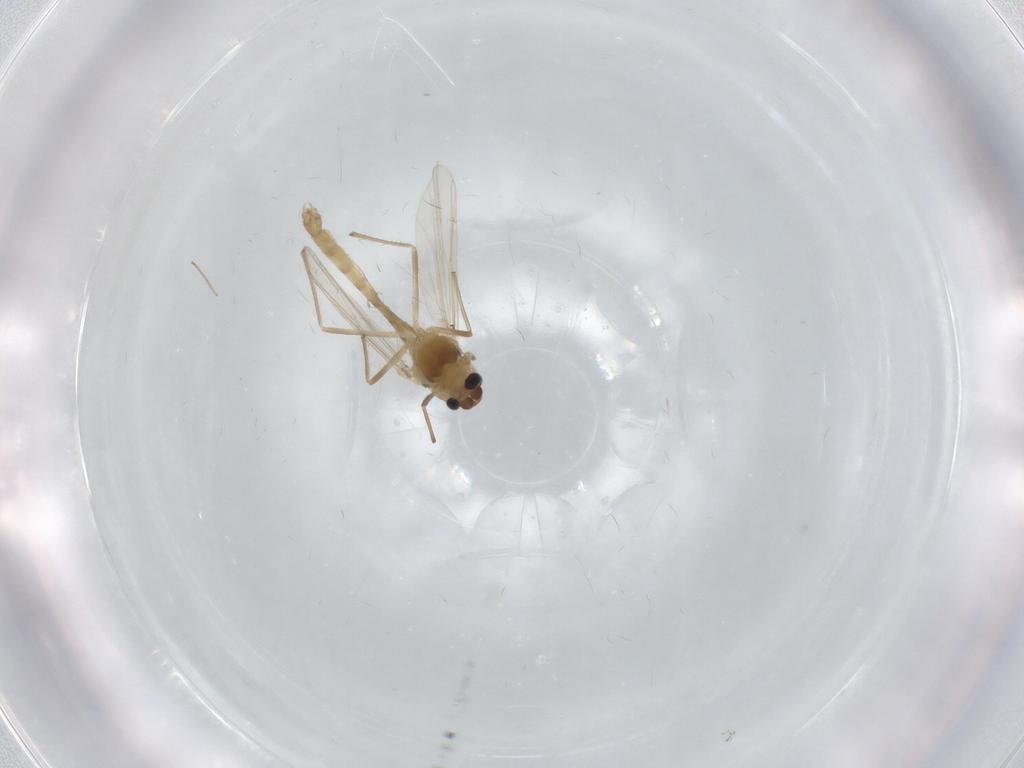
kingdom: Animalia
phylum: Arthropoda
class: Insecta
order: Diptera
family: Chironomidae
